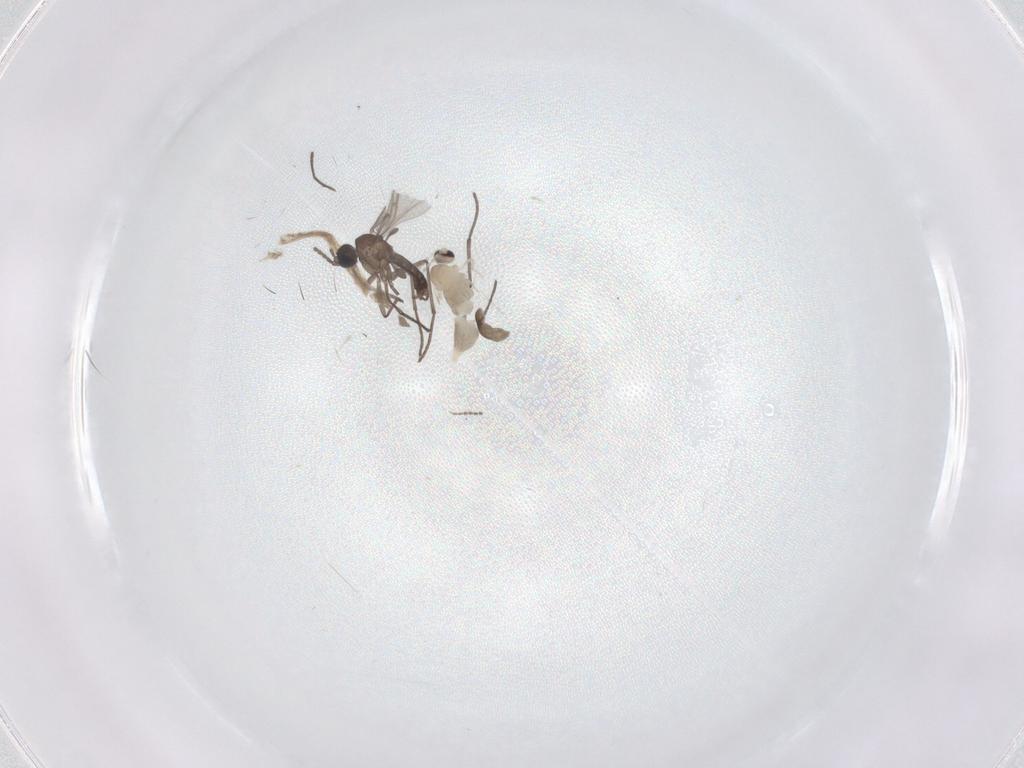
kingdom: Animalia
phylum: Arthropoda
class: Insecta
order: Diptera
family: Sciaridae
